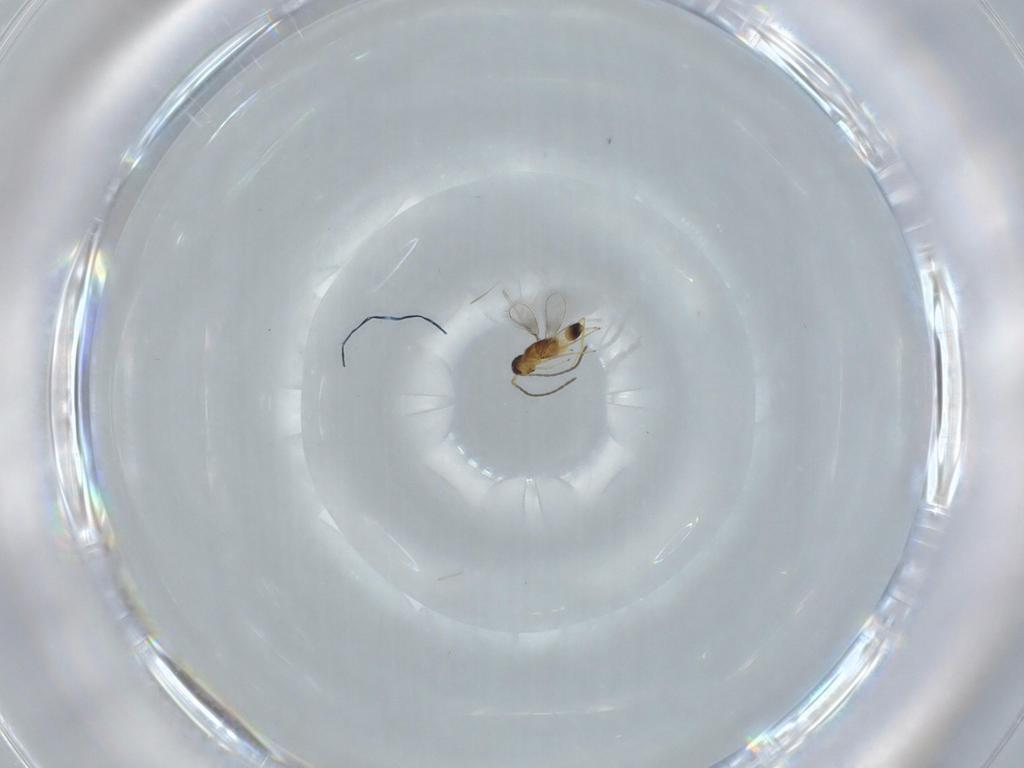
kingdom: Animalia
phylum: Arthropoda
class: Insecta
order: Hymenoptera
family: Mymaridae
